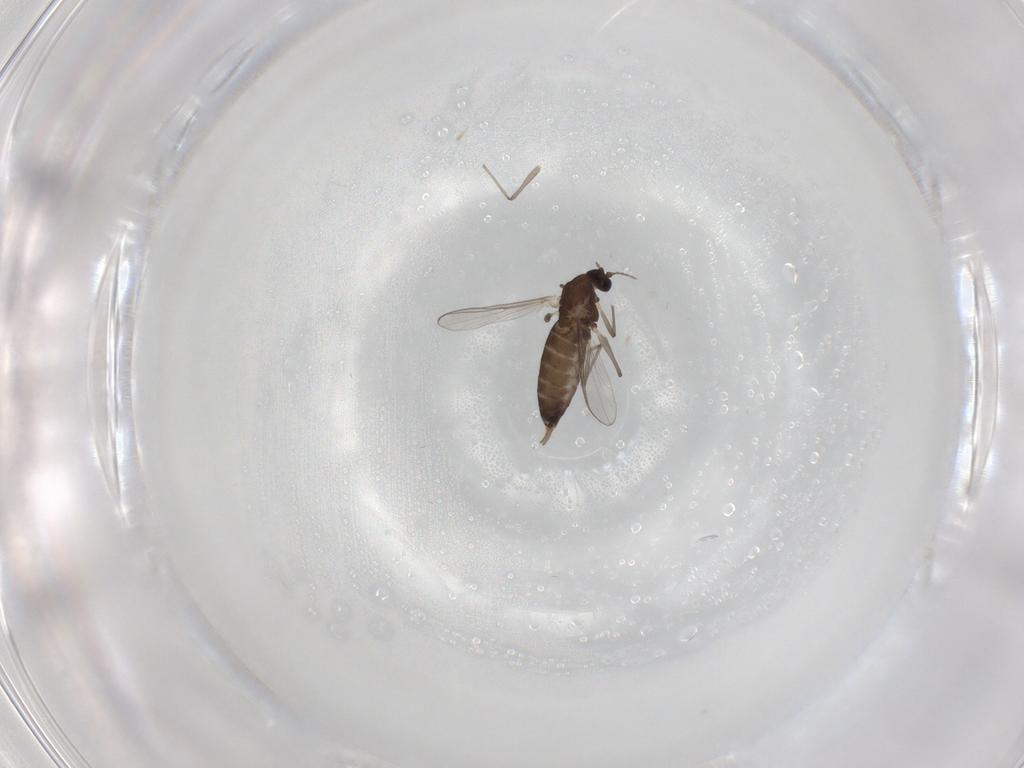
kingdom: Animalia
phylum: Arthropoda
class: Insecta
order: Diptera
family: Chironomidae
